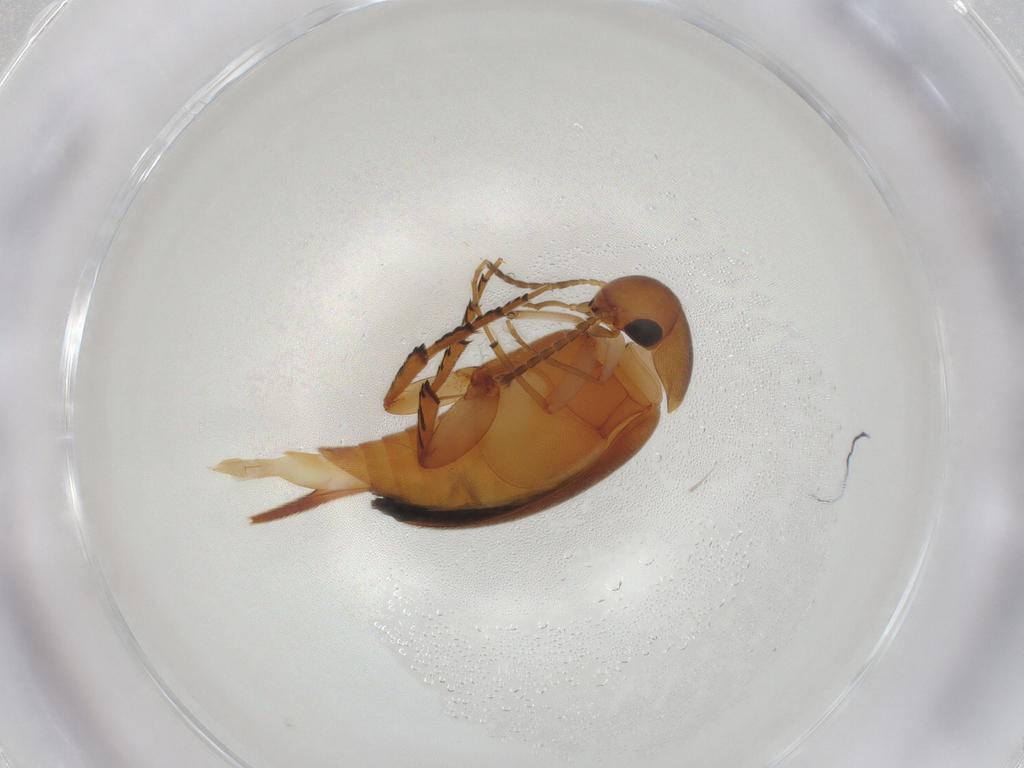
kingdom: Animalia
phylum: Arthropoda
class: Insecta
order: Coleoptera
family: Mordellidae
